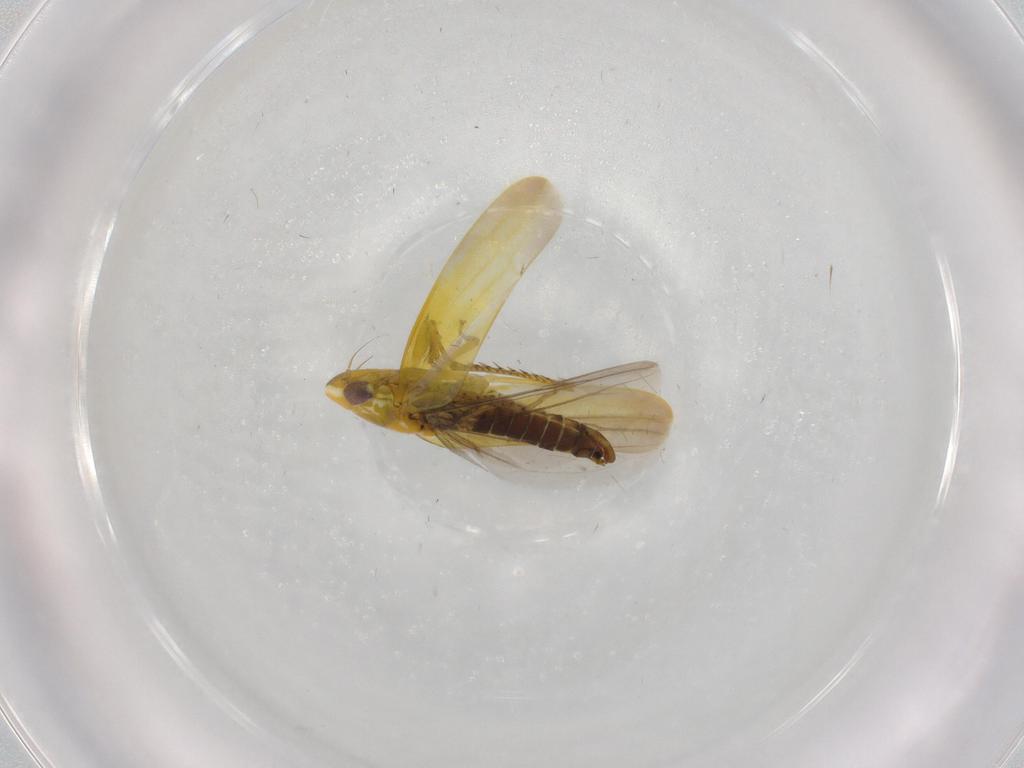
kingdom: Animalia
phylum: Arthropoda
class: Insecta
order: Hemiptera
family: Cicadellidae
